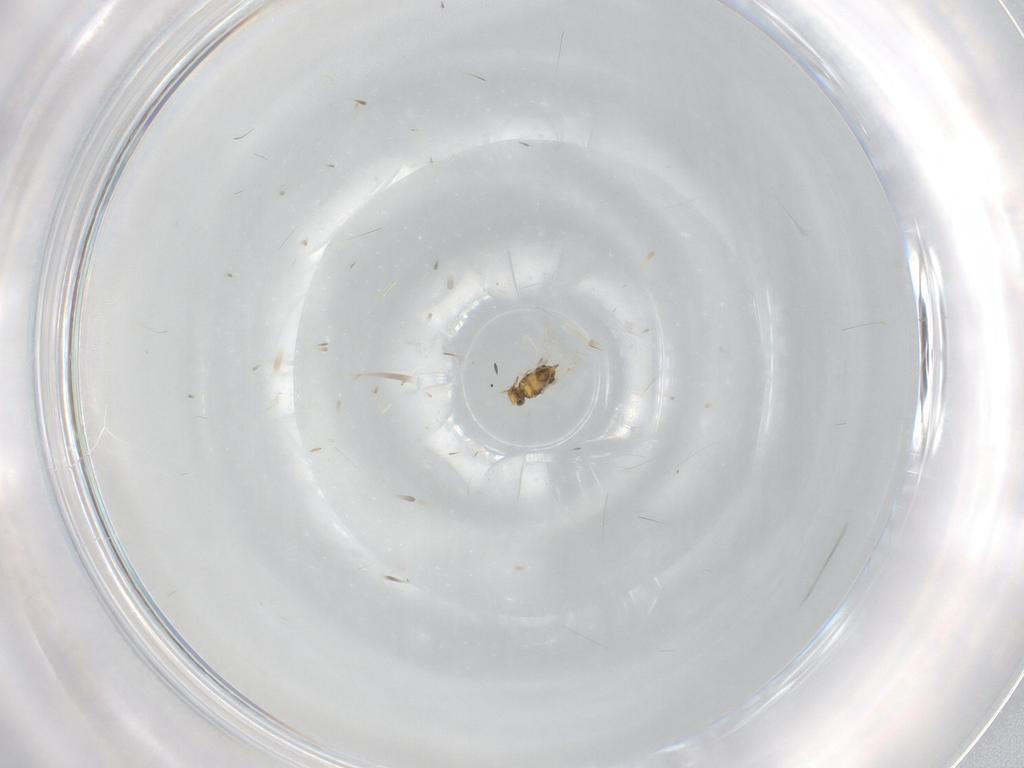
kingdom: Animalia
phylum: Arthropoda
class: Insecta
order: Hymenoptera
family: Aphelinidae
